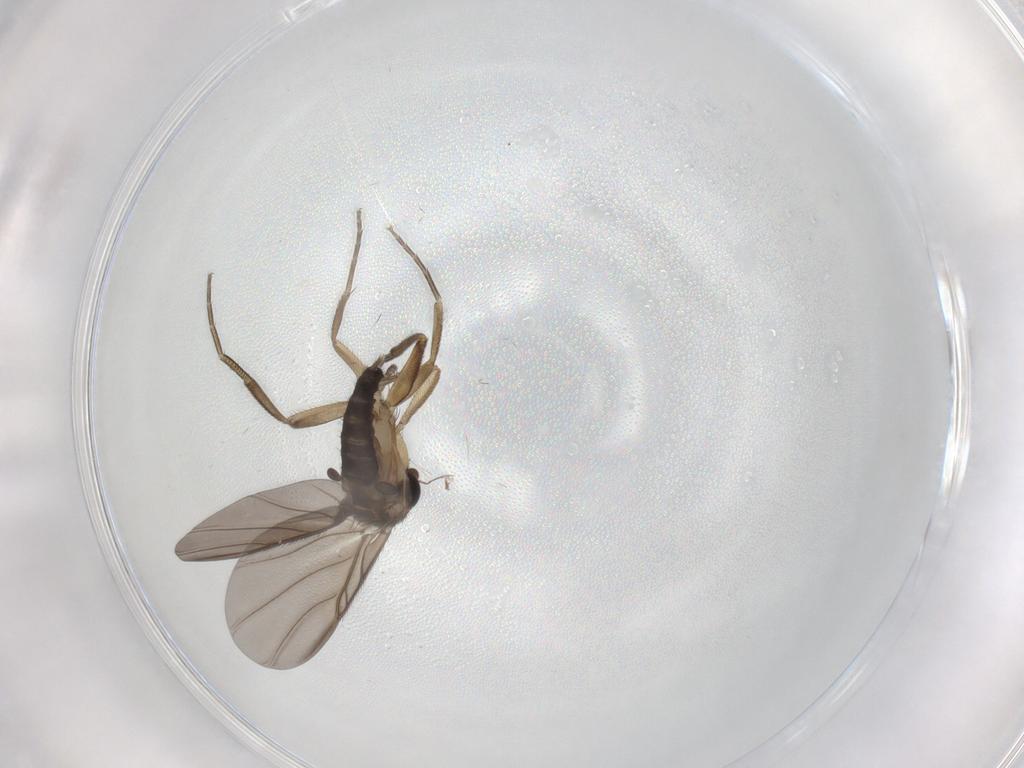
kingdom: Animalia
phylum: Arthropoda
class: Insecta
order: Diptera
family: Phoridae
